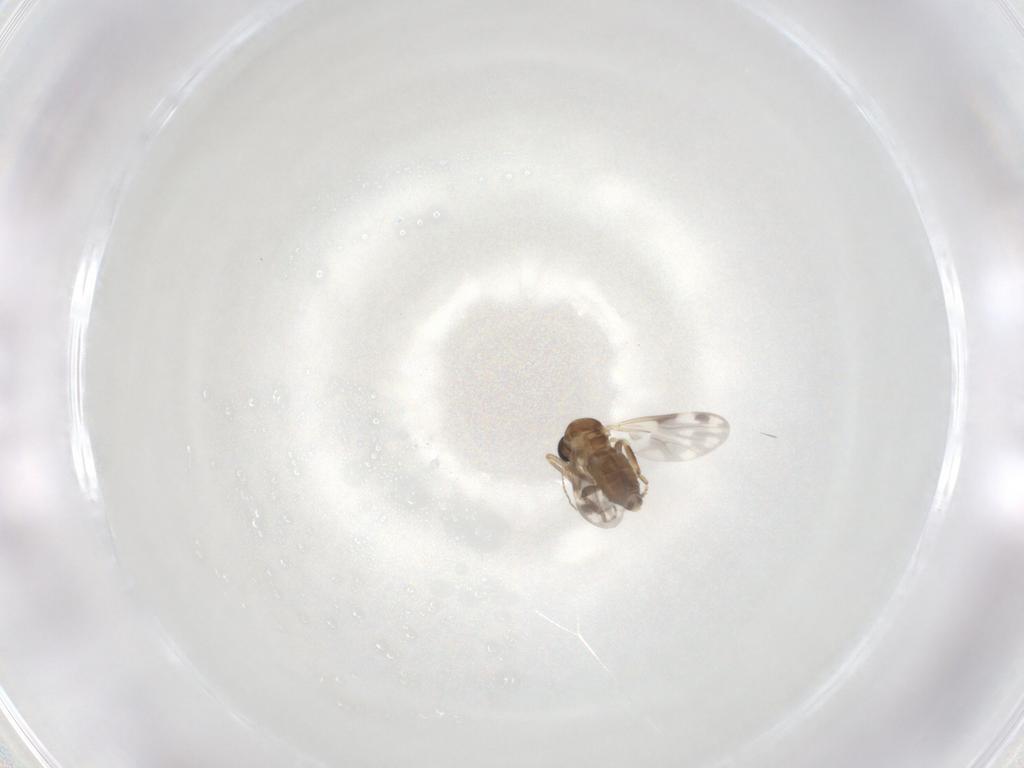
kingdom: Animalia
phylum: Arthropoda
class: Insecta
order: Diptera
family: Ceratopogonidae
